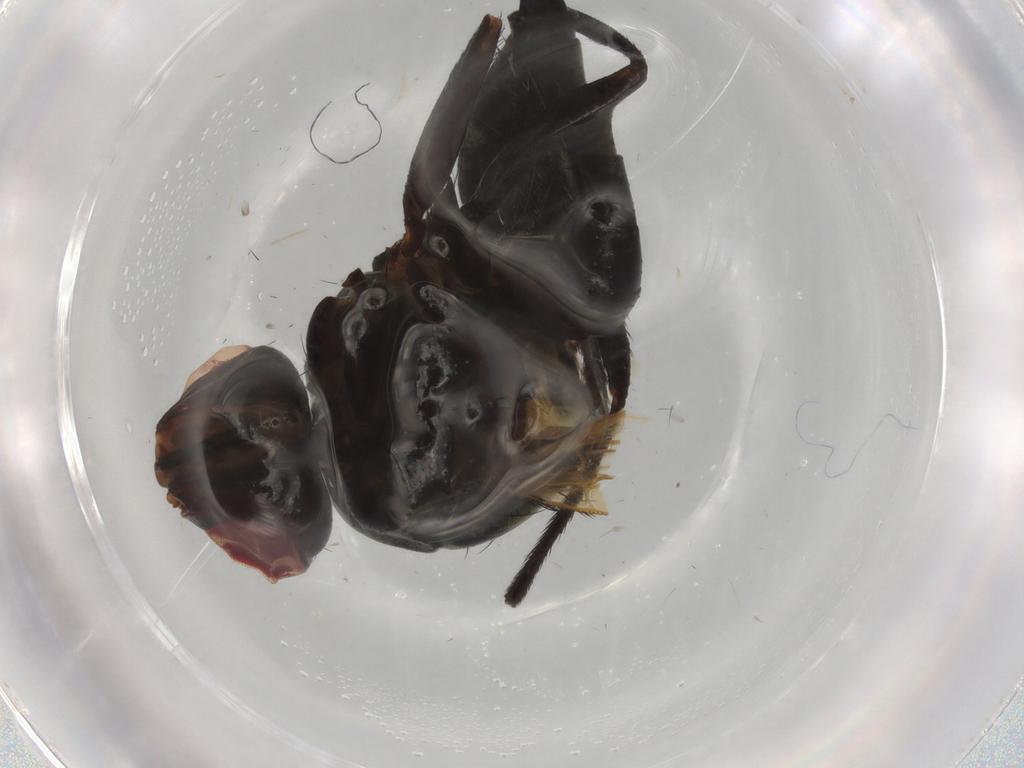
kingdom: Animalia
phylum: Arthropoda
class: Insecta
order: Diptera
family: Tachinidae
